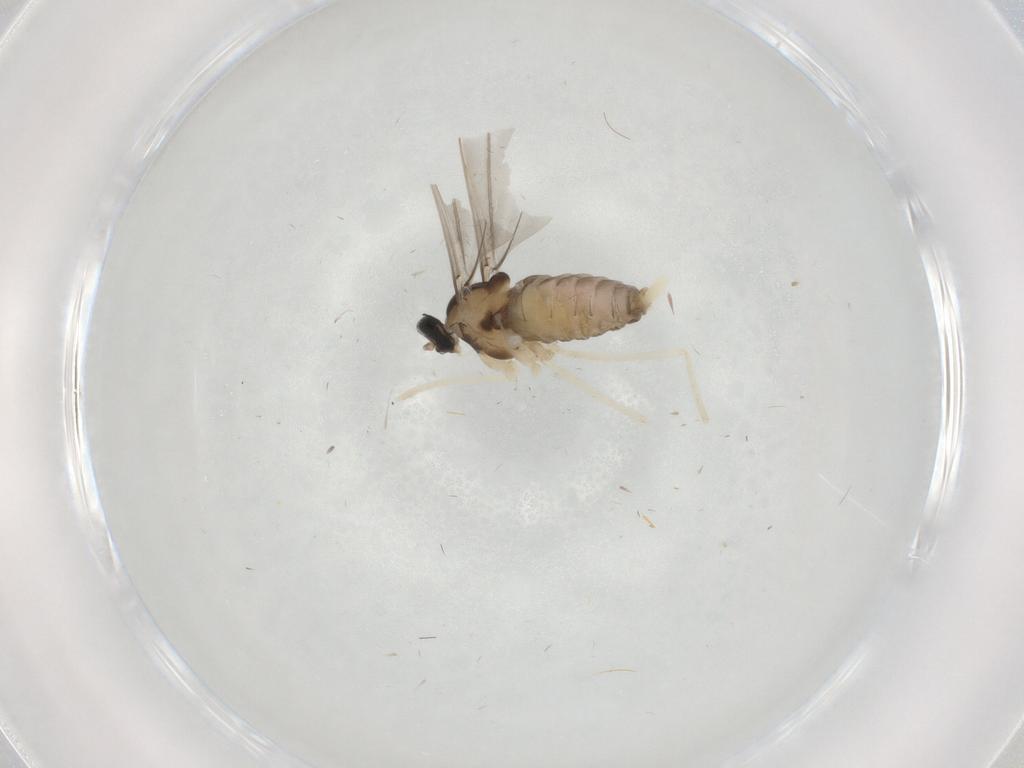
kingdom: Animalia
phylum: Arthropoda
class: Insecta
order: Diptera
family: Cecidomyiidae
